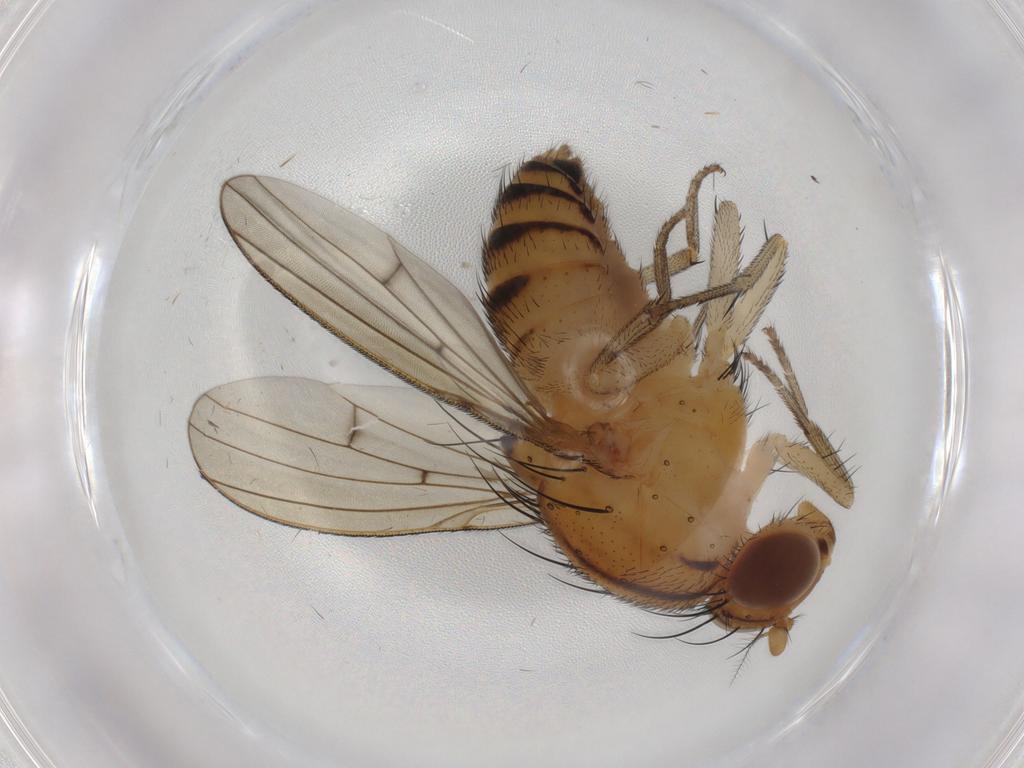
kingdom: Animalia
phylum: Arthropoda
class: Insecta
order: Diptera
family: Lauxaniidae
